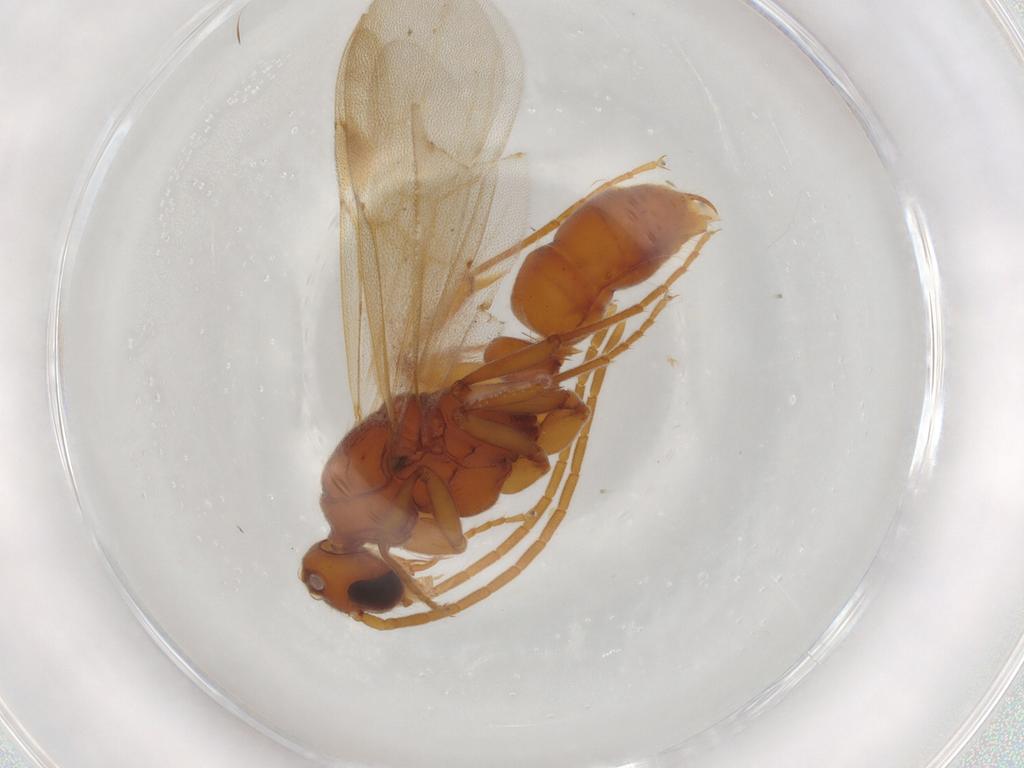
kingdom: Animalia
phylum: Arthropoda
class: Insecta
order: Hymenoptera
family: Formicidae
